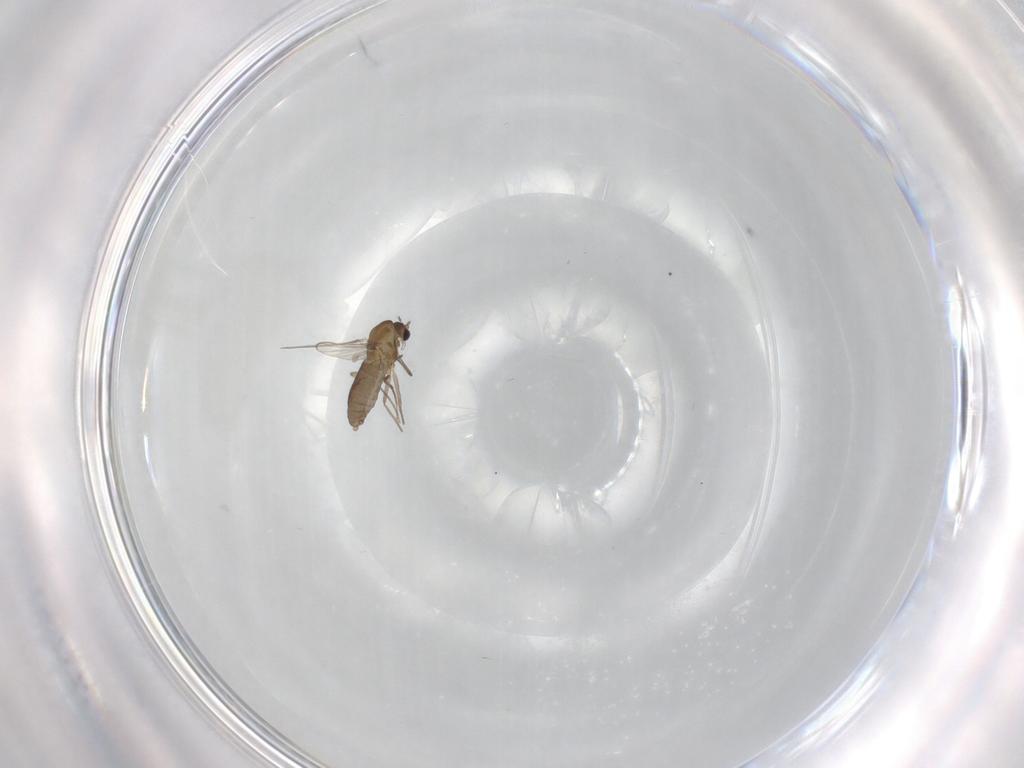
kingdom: Animalia
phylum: Arthropoda
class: Insecta
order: Diptera
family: Chironomidae
